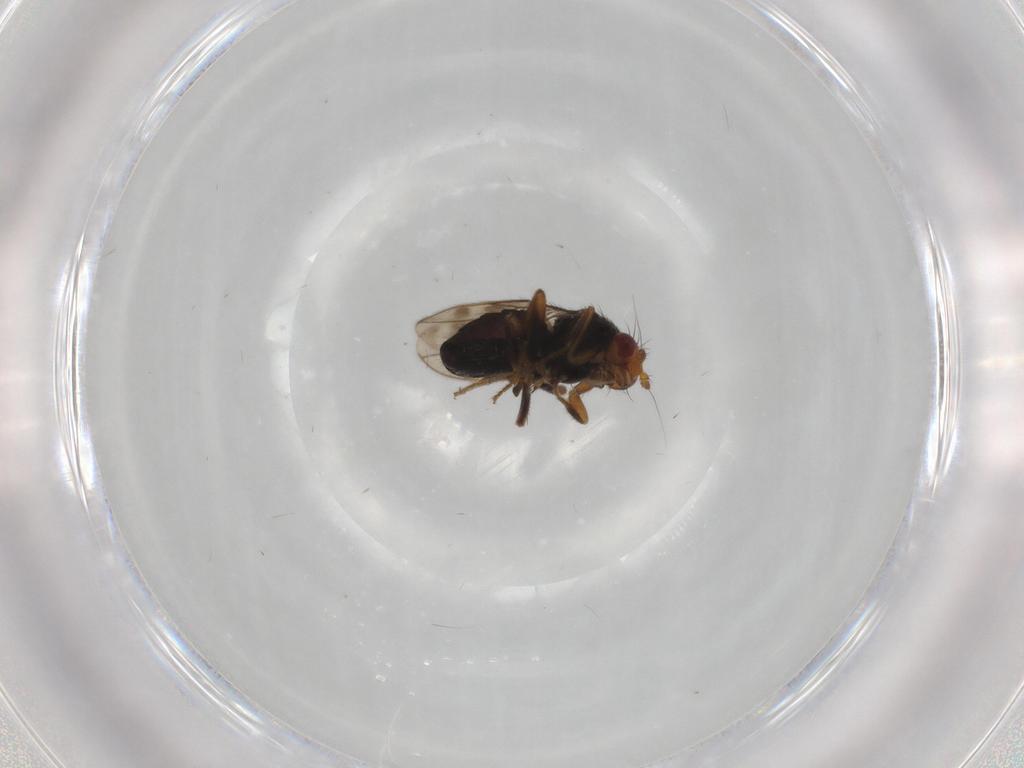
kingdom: Animalia
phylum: Arthropoda
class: Insecta
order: Diptera
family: Sphaeroceridae
